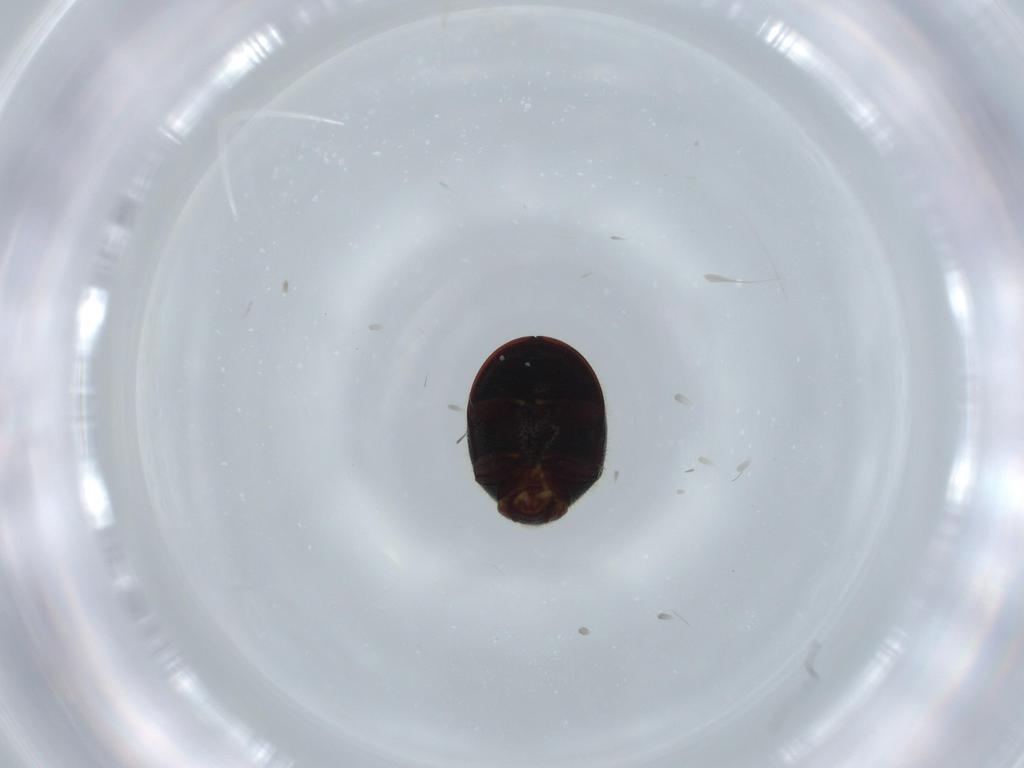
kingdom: Animalia
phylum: Arthropoda
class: Insecta
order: Coleoptera
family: Ptinidae
